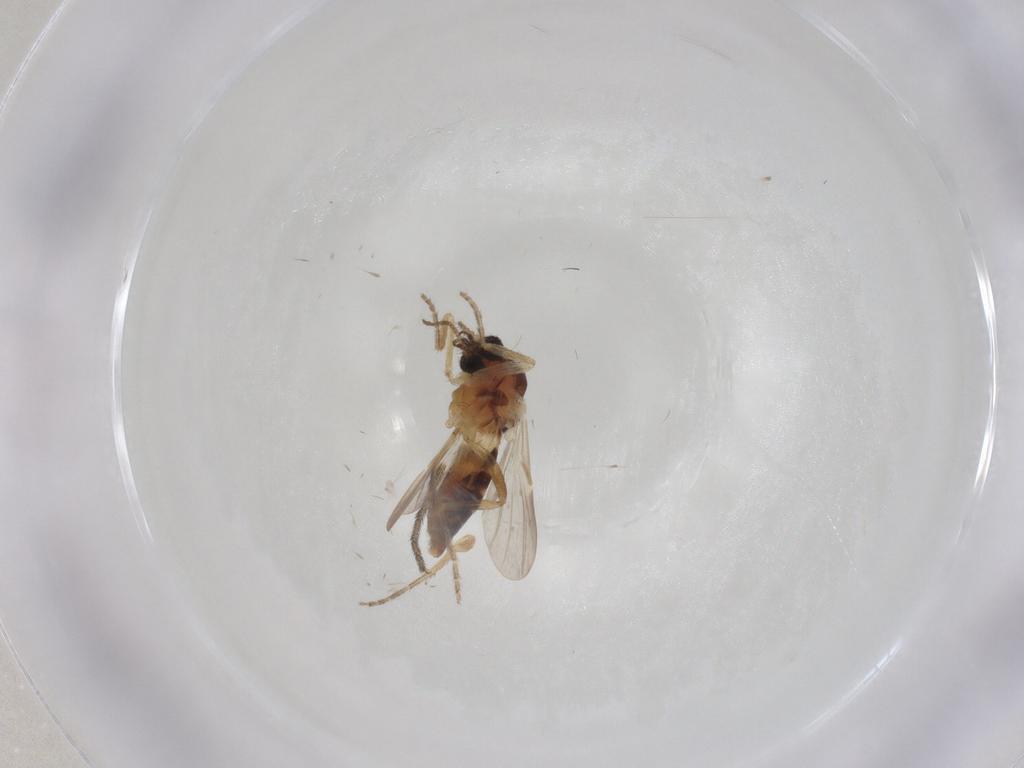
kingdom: Animalia
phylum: Arthropoda
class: Insecta
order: Diptera
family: Ceratopogonidae
